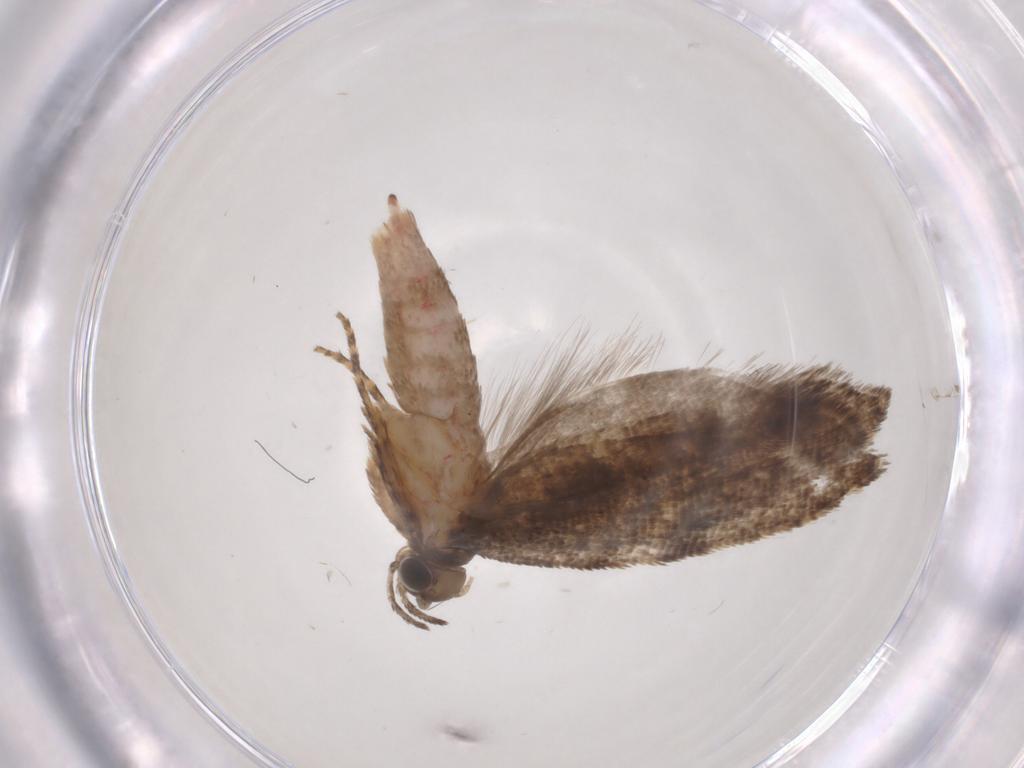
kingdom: Animalia
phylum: Arthropoda
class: Insecta
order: Lepidoptera
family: Glyphipterigidae
